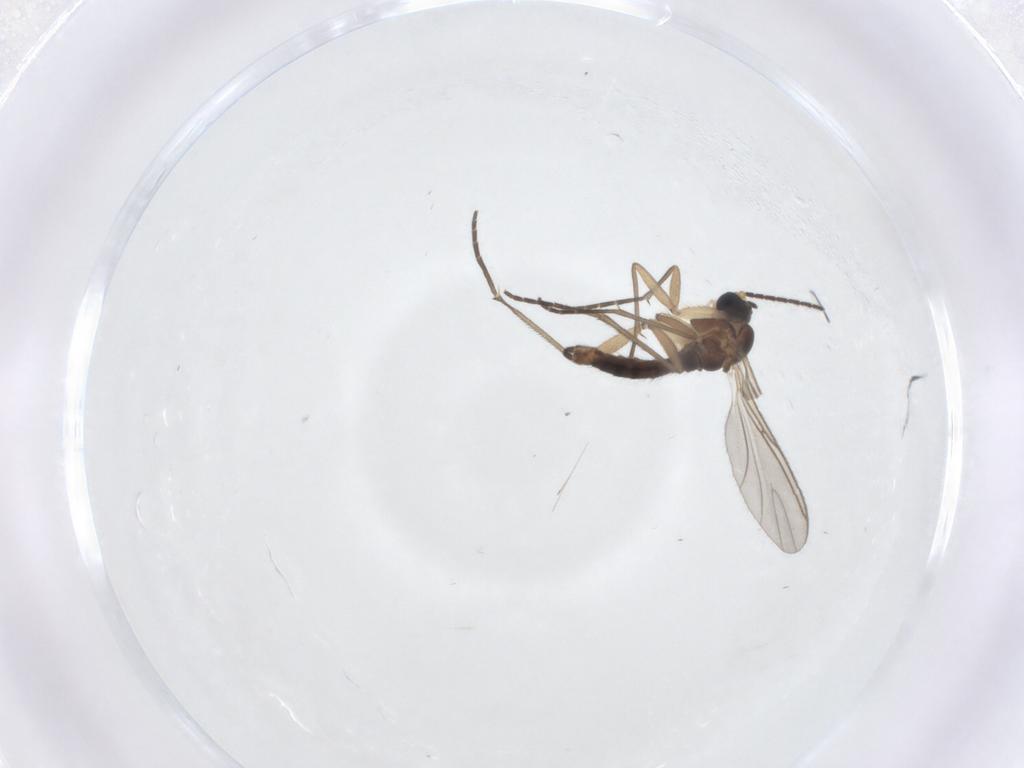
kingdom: Animalia
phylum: Arthropoda
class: Insecta
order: Diptera
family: Sciaridae
